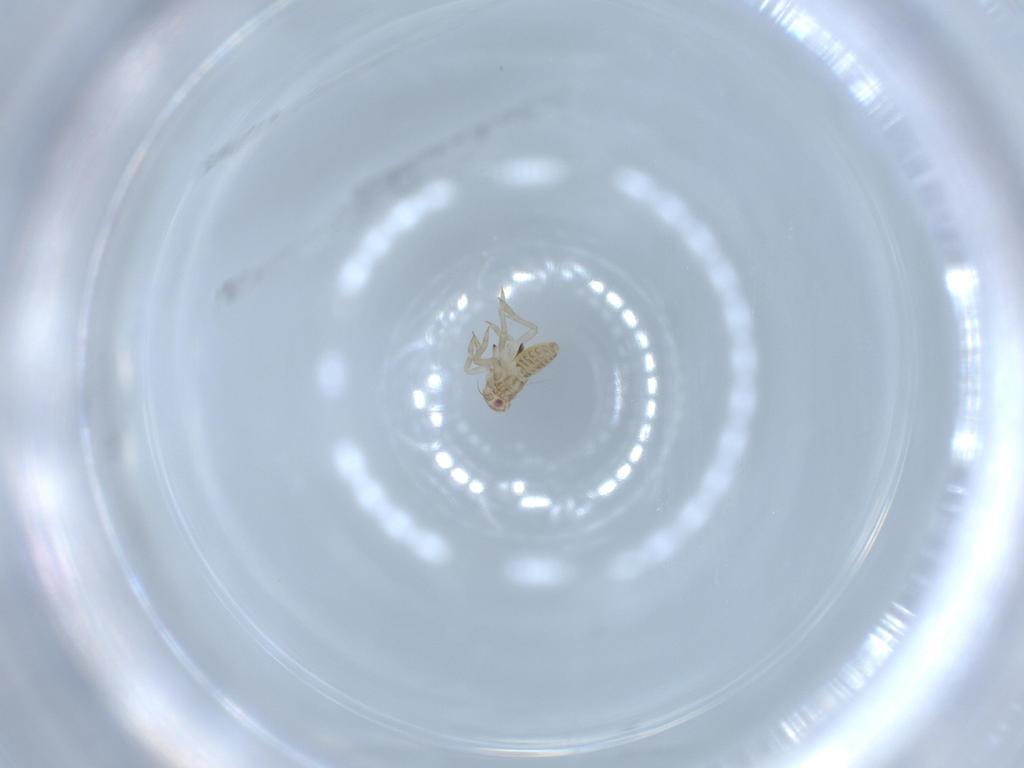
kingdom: Animalia
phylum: Arthropoda
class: Insecta
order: Hemiptera
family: Delphacidae
